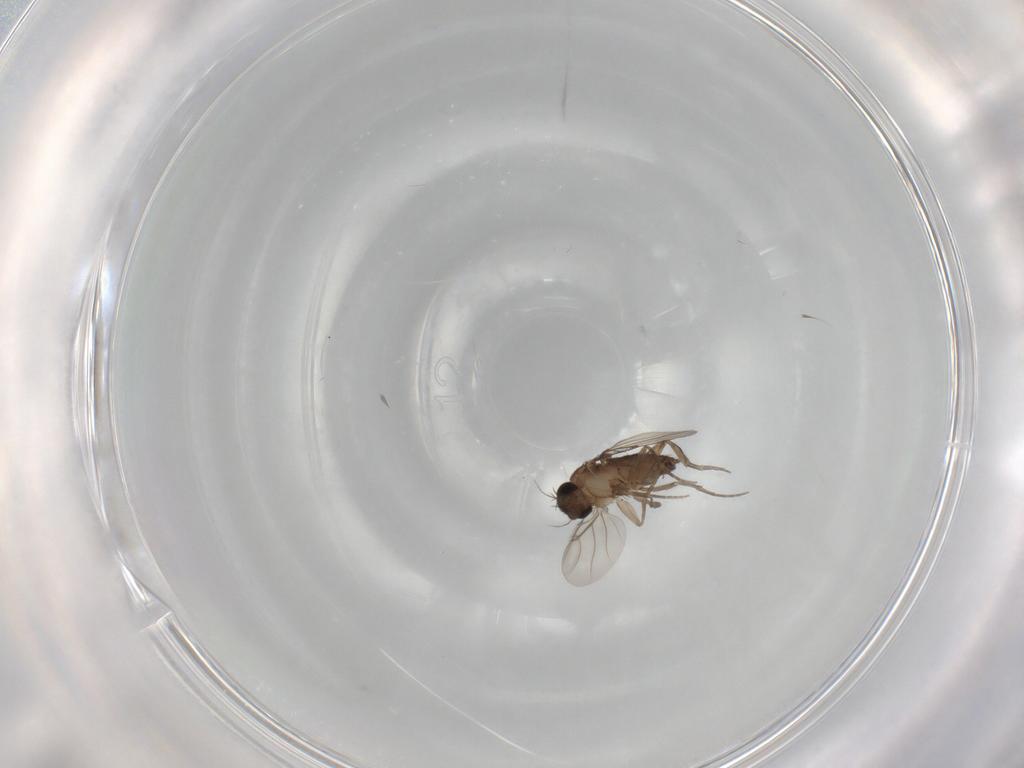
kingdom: Animalia
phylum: Arthropoda
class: Insecta
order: Diptera
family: Phoridae
